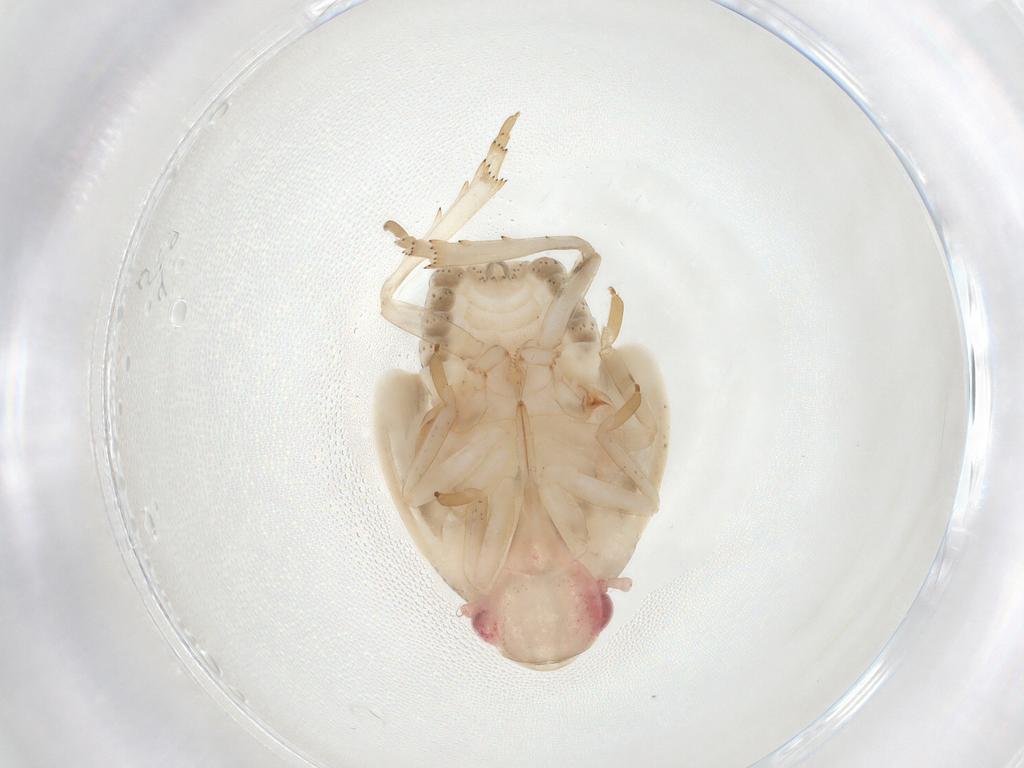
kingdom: Animalia
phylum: Arthropoda
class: Insecta
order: Hemiptera
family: Flatidae
